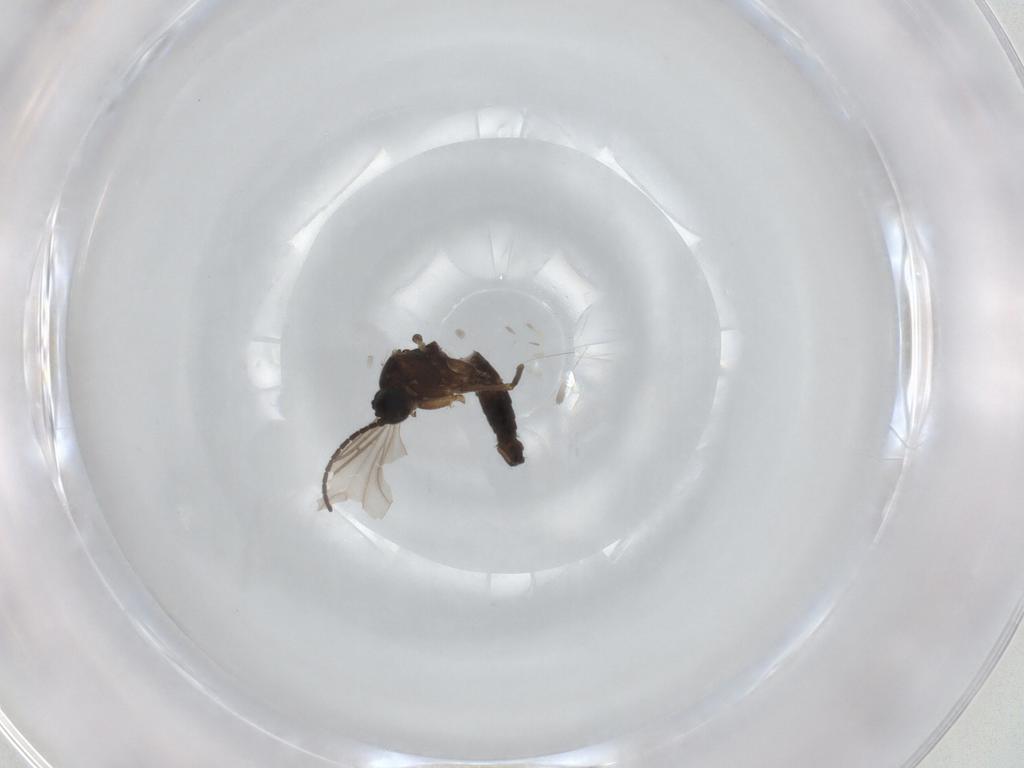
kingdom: Animalia
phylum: Arthropoda
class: Insecta
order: Diptera
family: Sciaridae
